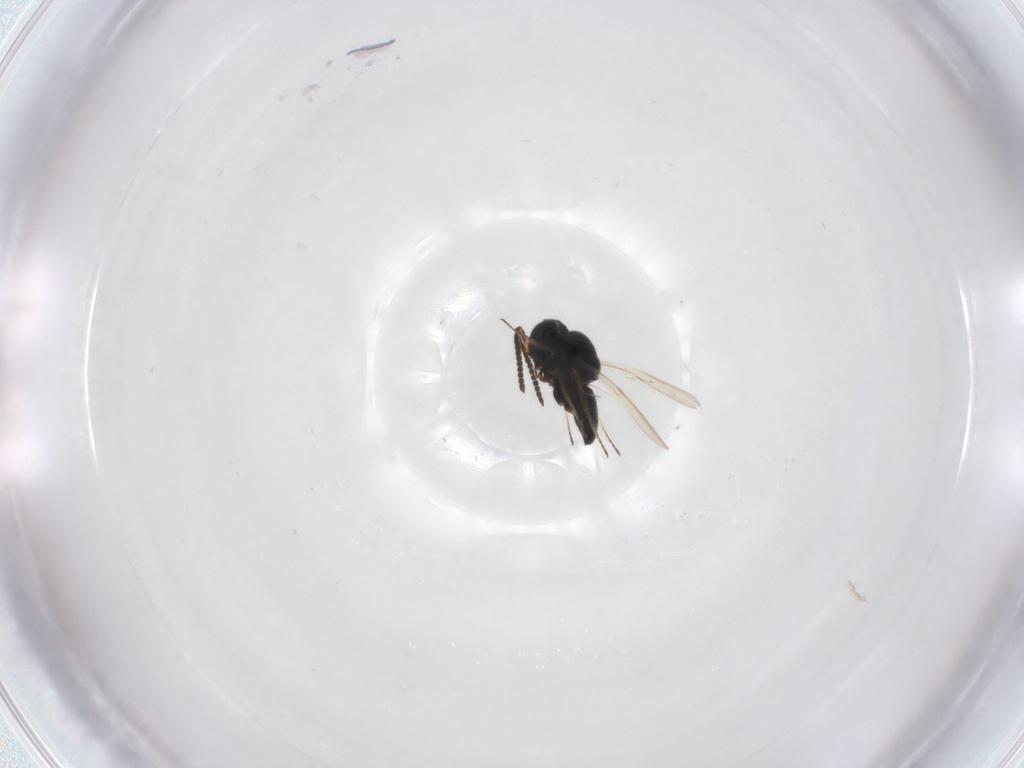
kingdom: Animalia
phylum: Arthropoda
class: Insecta
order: Hymenoptera
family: Scelionidae
